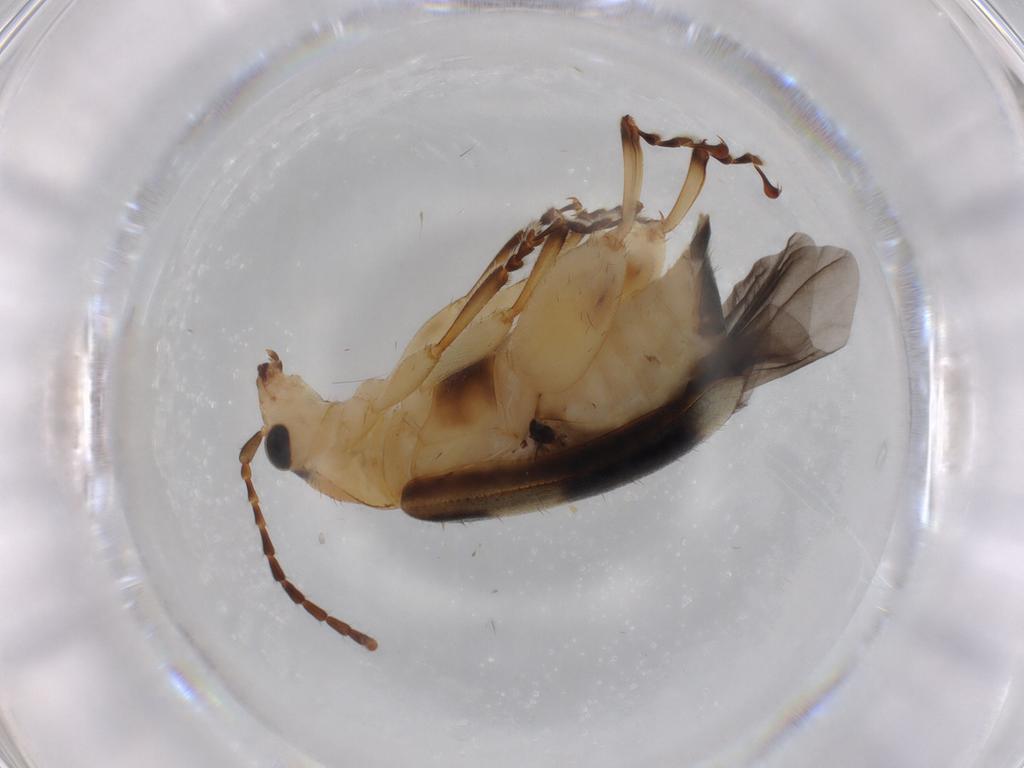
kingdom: Animalia
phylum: Arthropoda
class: Insecta
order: Coleoptera
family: Chrysomelidae
